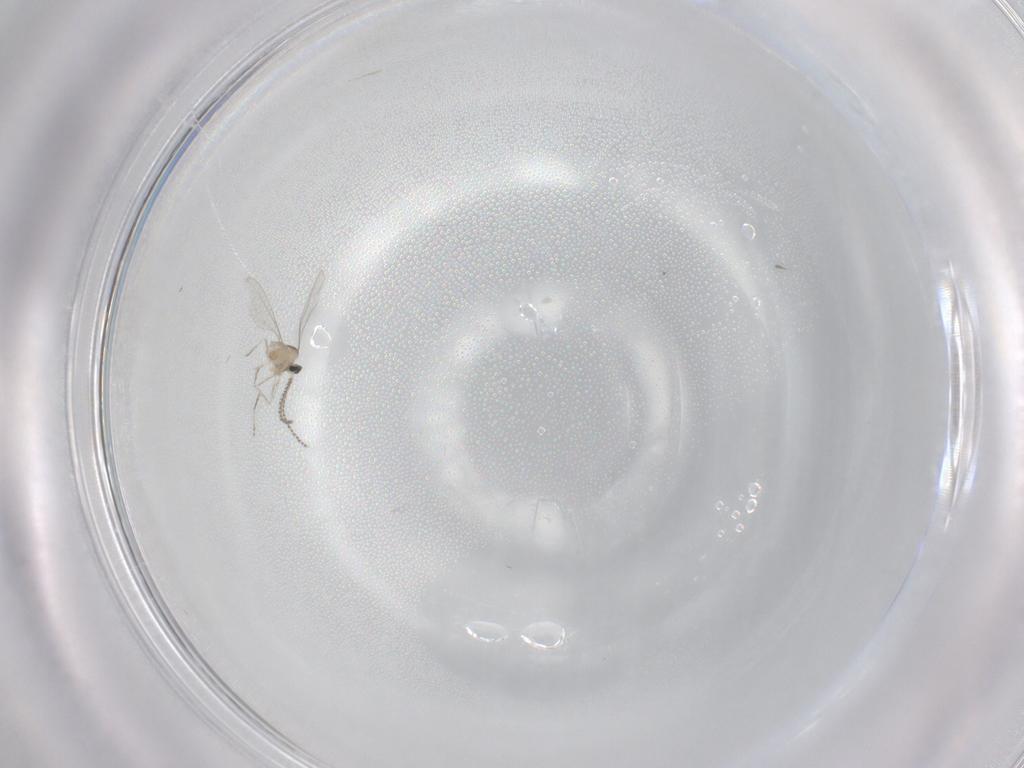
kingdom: Animalia
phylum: Arthropoda
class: Insecta
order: Diptera
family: Cecidomyiidae
